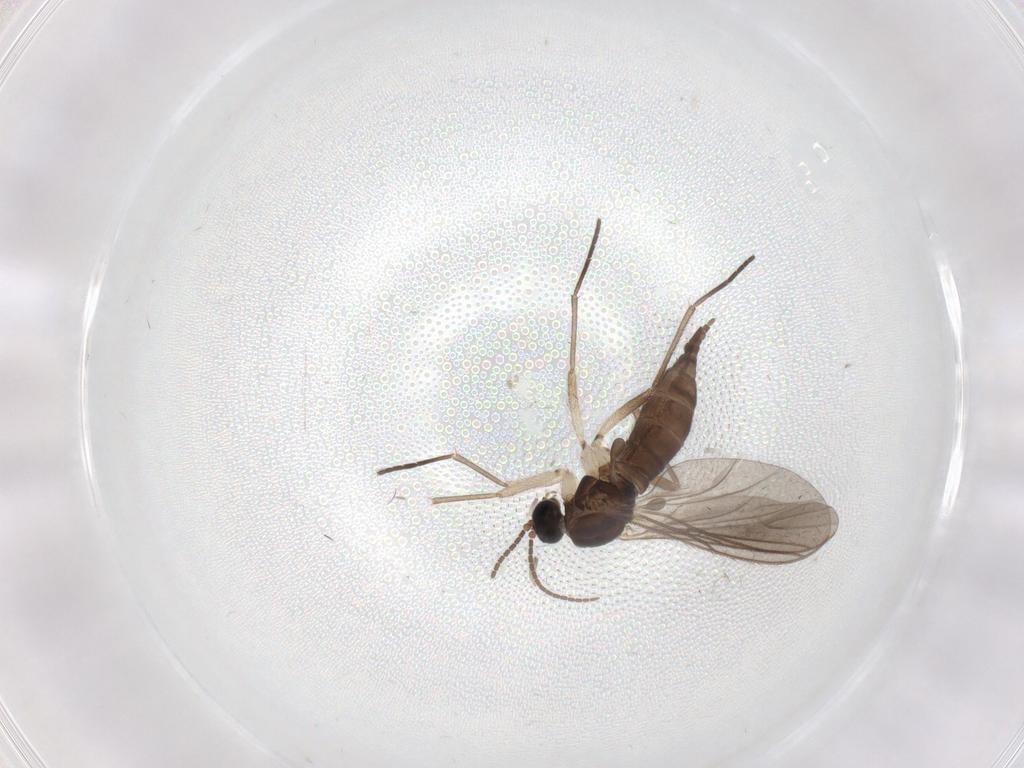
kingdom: Animalia
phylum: Arthropoda
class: Insecta
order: Diptera
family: Sciaridae
